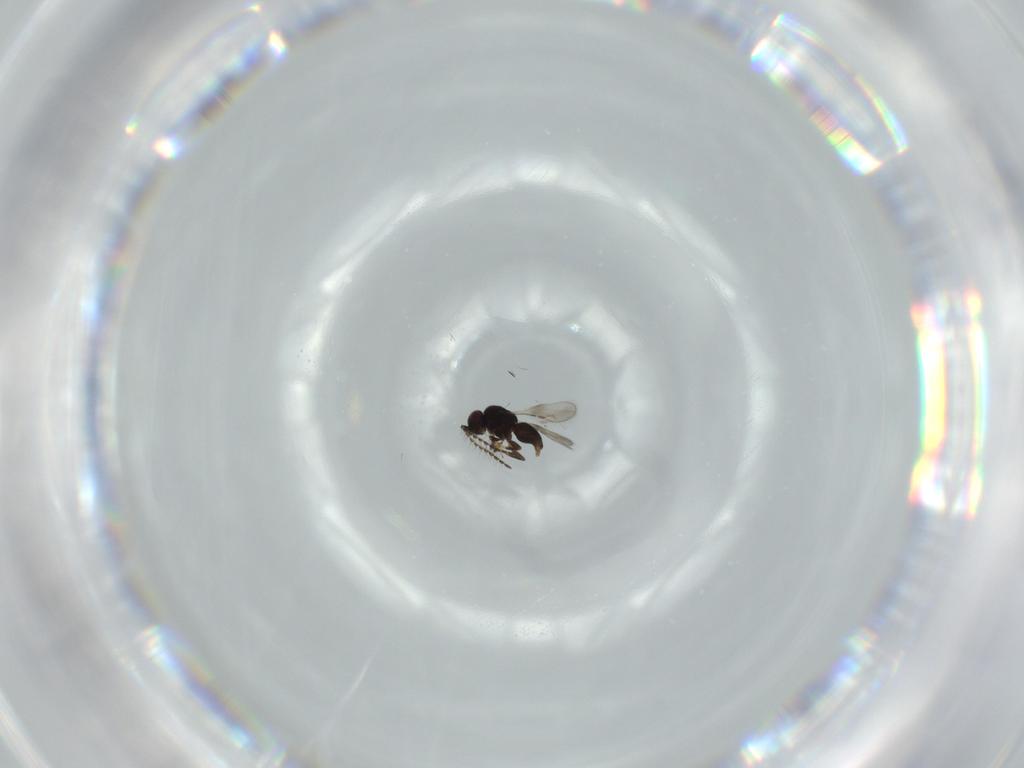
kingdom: Animalia
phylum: Arthropoda
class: Insecta
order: Hymenoptera
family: Pompilidae
